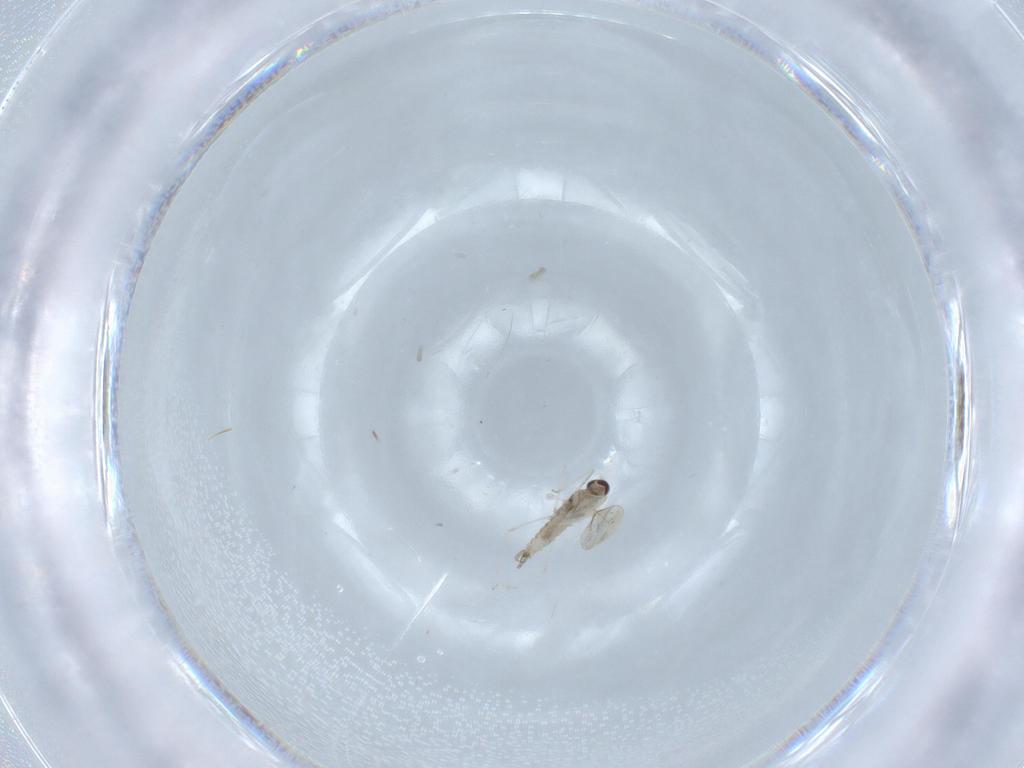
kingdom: Animalia
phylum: Arthropoda
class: Insecta
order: Diptera
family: Cecidomyiidae
